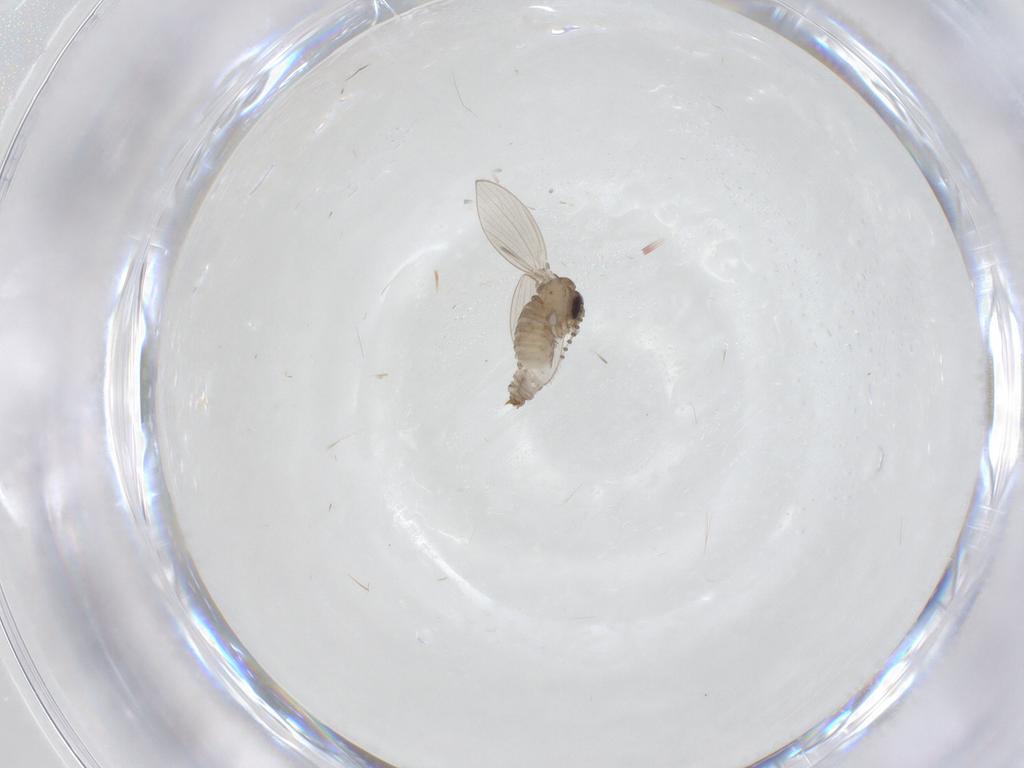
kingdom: Animalia
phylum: Arthropoda
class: Insecta
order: Diptera
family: Psychodidae
